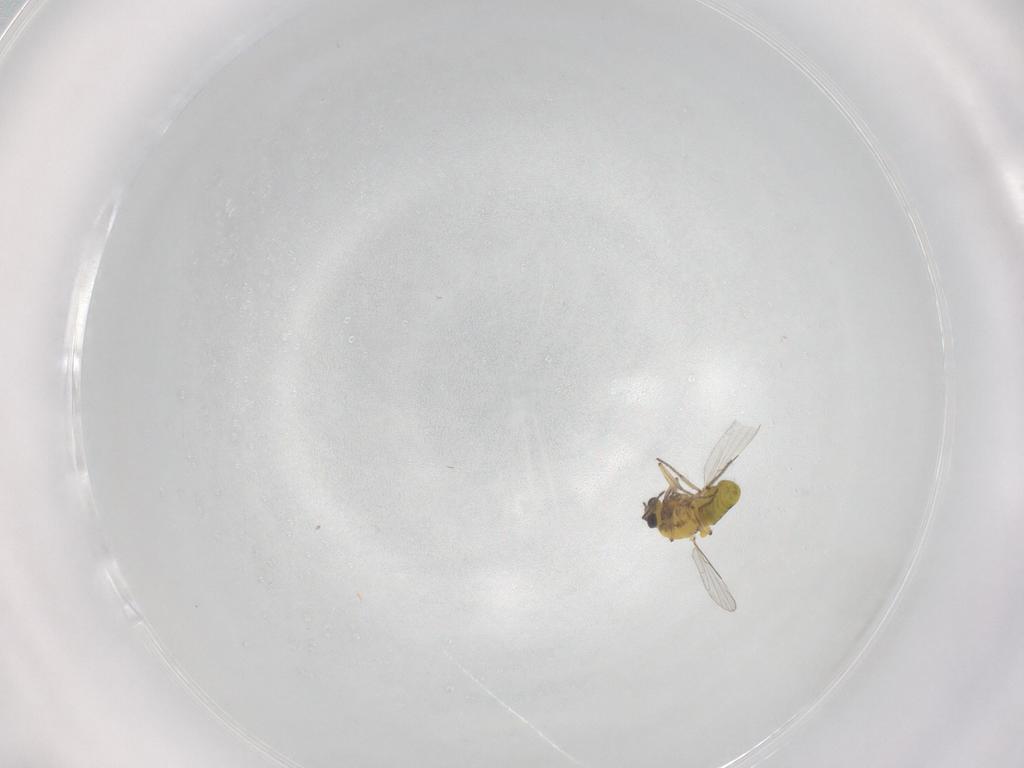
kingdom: Animalia
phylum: Arthropoda
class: Insecta
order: Diptera
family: Ceratopogonidae
